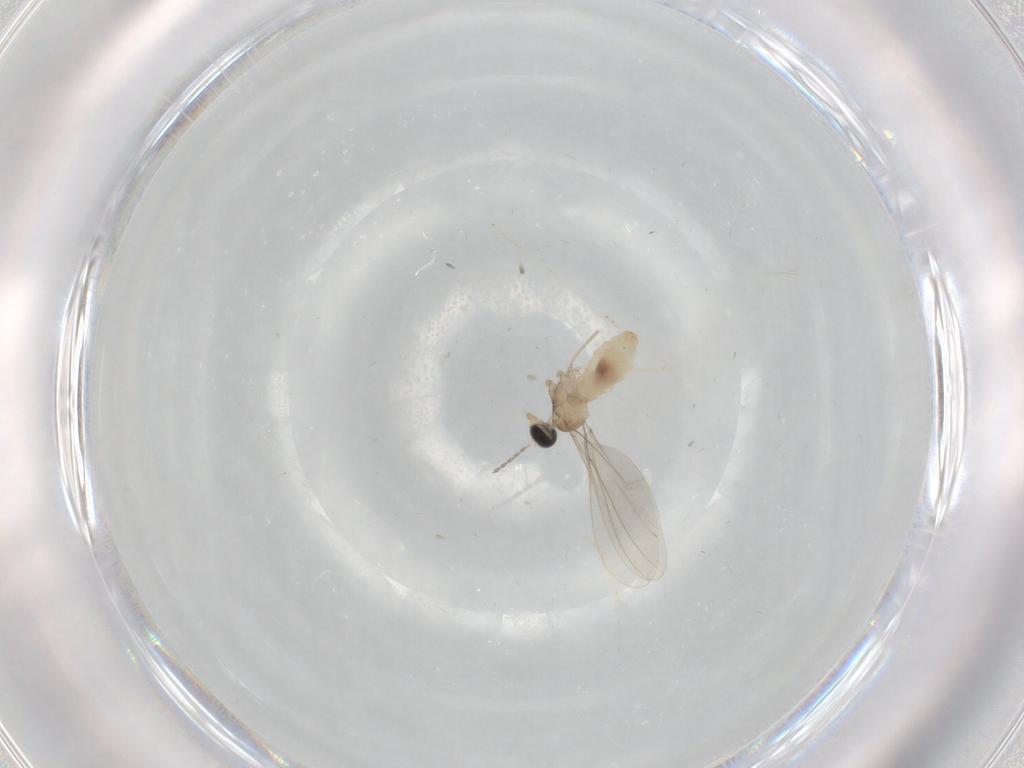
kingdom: Animalia
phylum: Arthropoda
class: Insecta
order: Diptera
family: Cecidomyiidae
